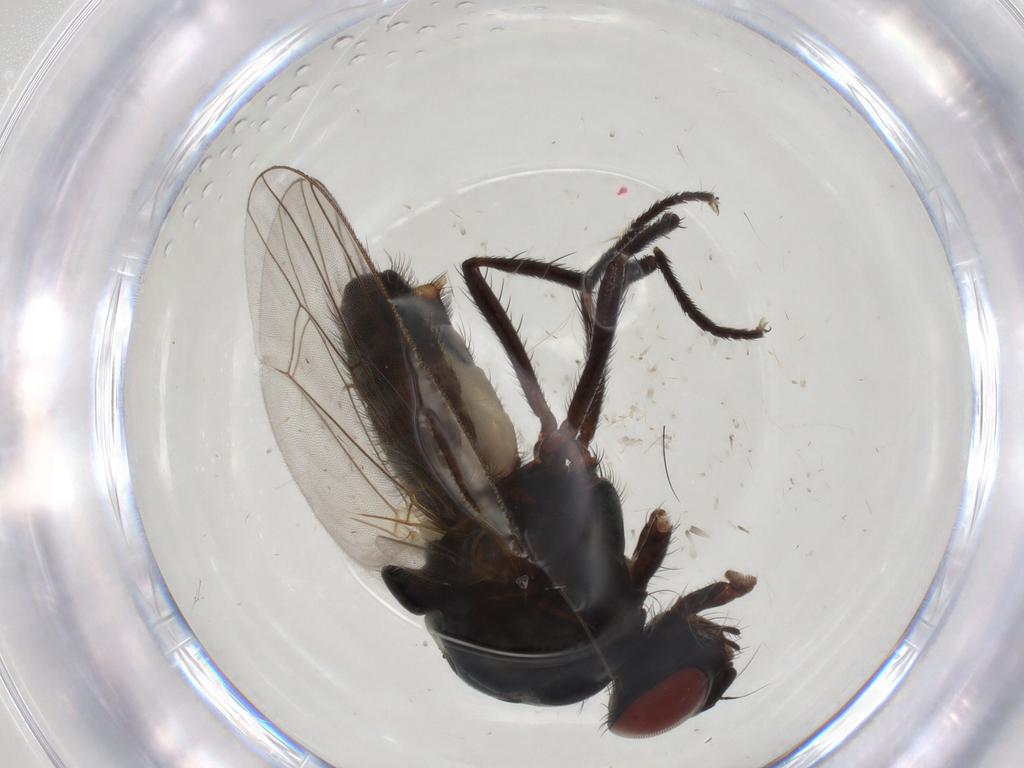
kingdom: Animalia
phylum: Arthropoda
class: Insecta
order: Diptera
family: Anthomyiidae
